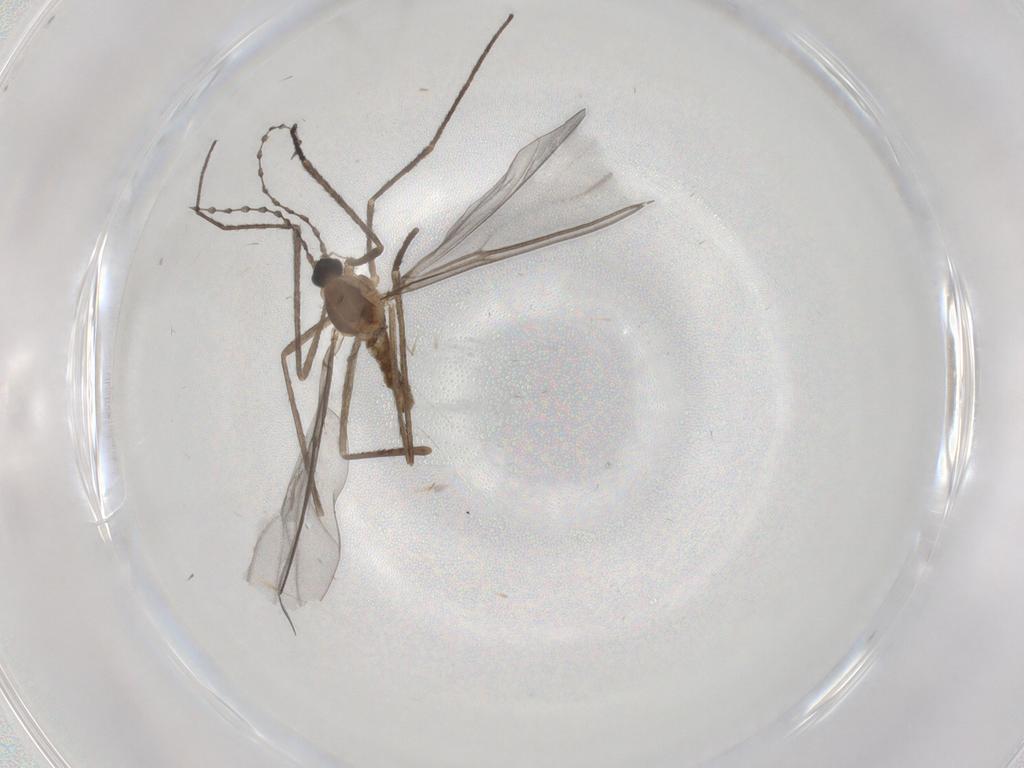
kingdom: Animalia
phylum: Arthropoda
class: Insecta
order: Diptera
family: Cecidomyiidae
